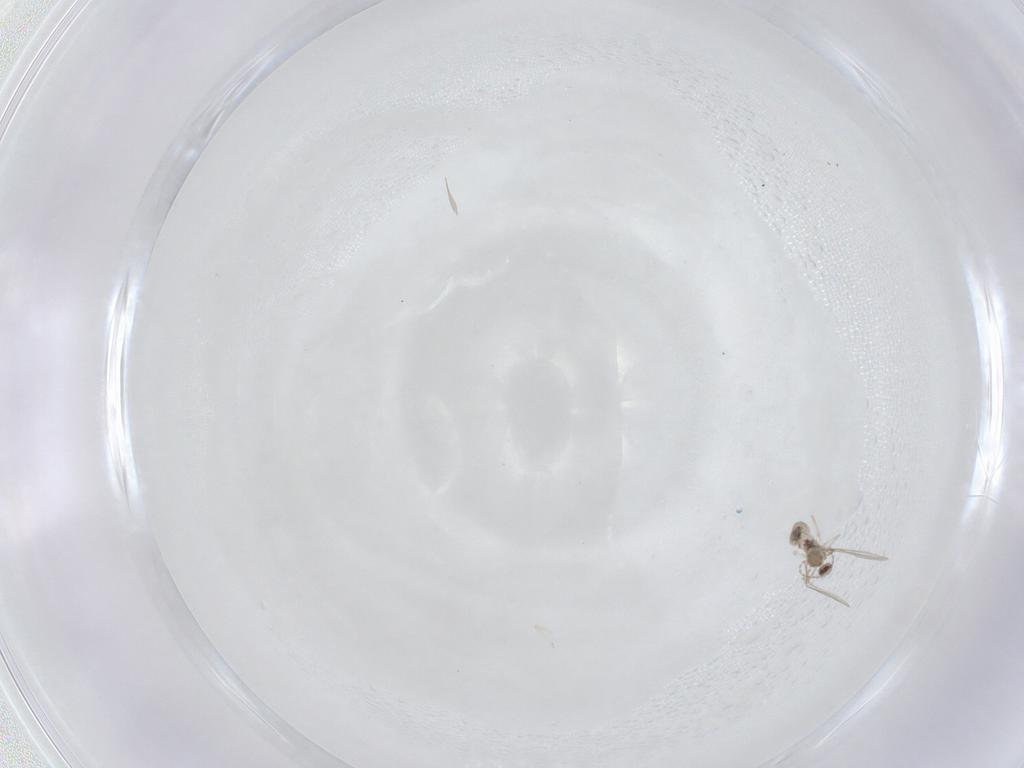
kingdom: Animalia
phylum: Arthropoda
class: Insecta
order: Diptera
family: Cecidomyiidae
